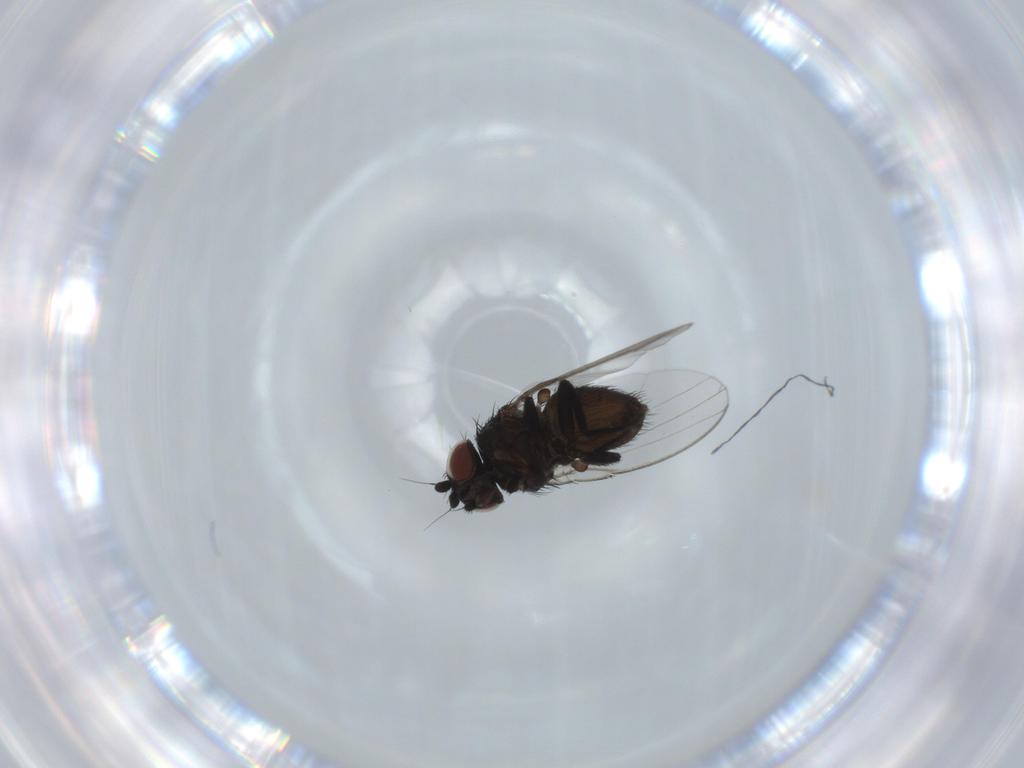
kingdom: Animalia
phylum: Arthropoda
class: Insecta
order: Diptera
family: Milichiidae
